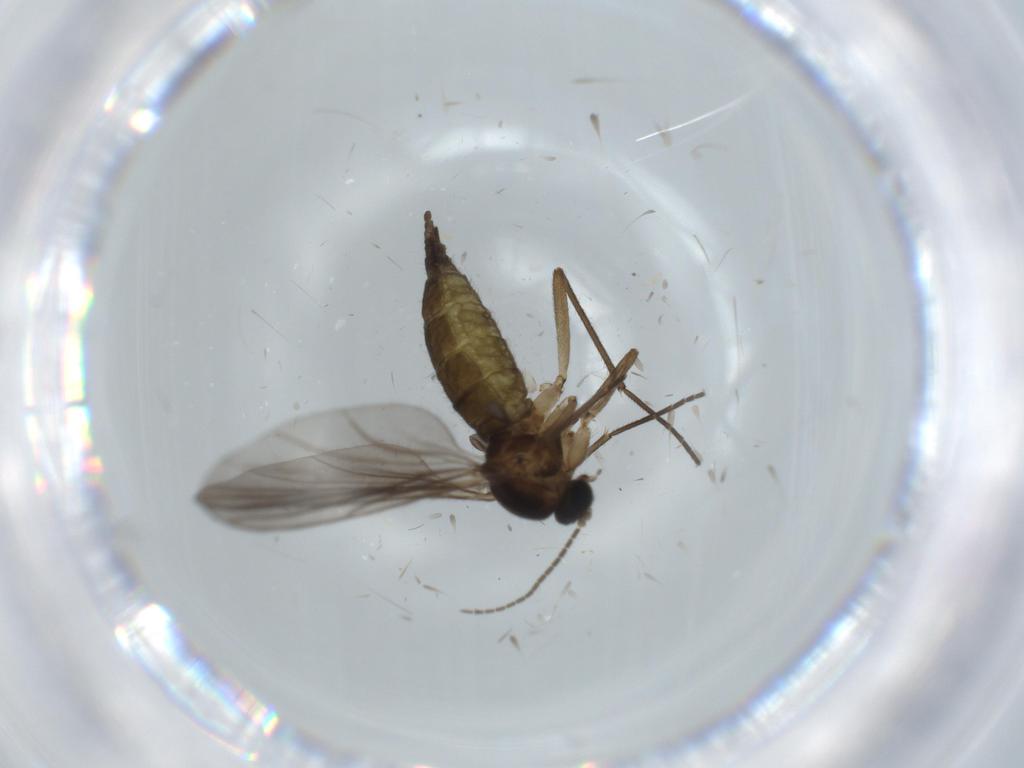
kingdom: Animalia
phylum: Arthropoda
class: Insecta
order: Diptera
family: Sciaridae
